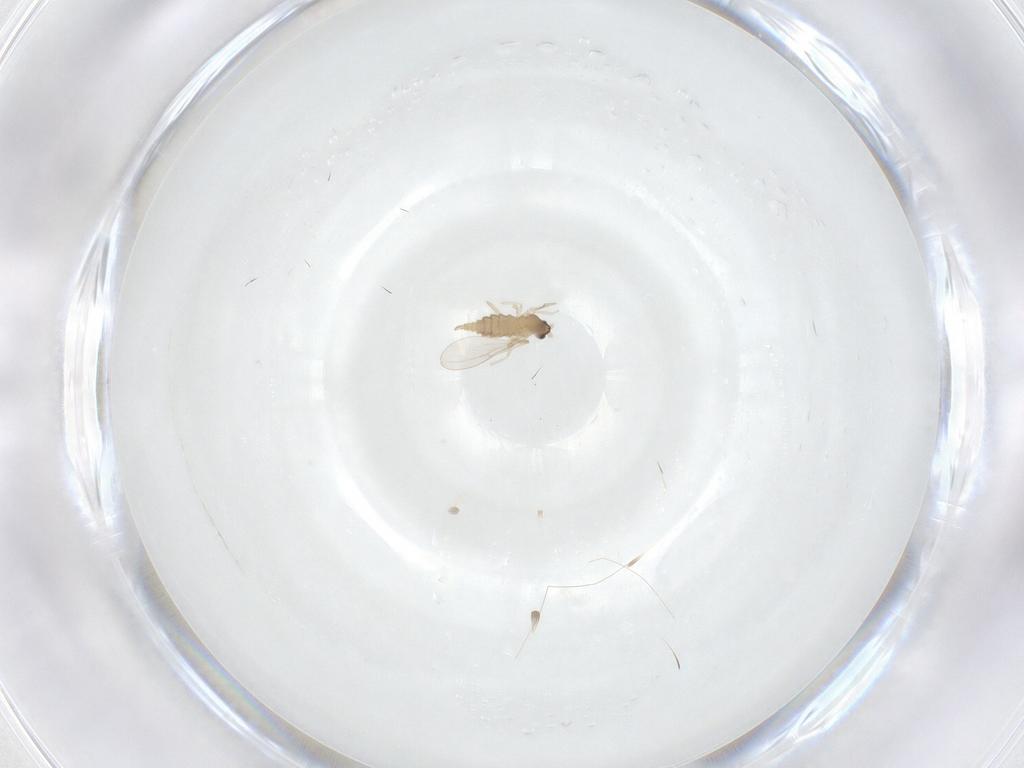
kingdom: Animalia
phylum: Arthropoda
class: Insecta
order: Diptera
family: Cecidomyiidae
